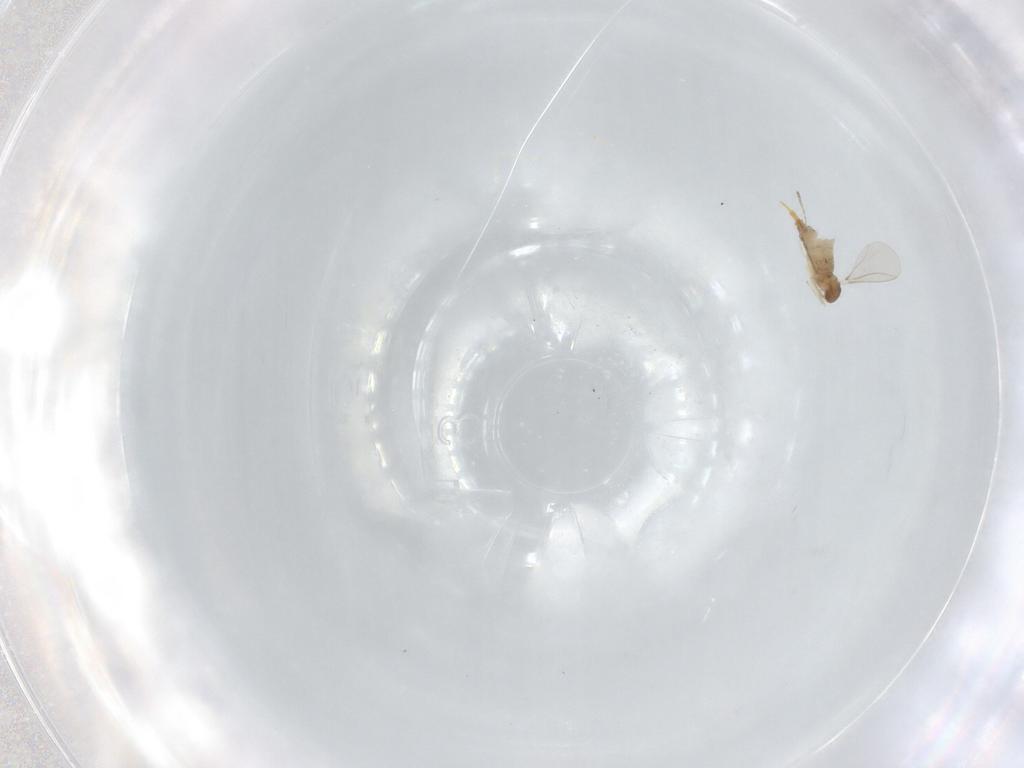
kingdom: Animalia
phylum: Arthropoda
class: Insecta
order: Diptera
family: Cecidomyiidae
